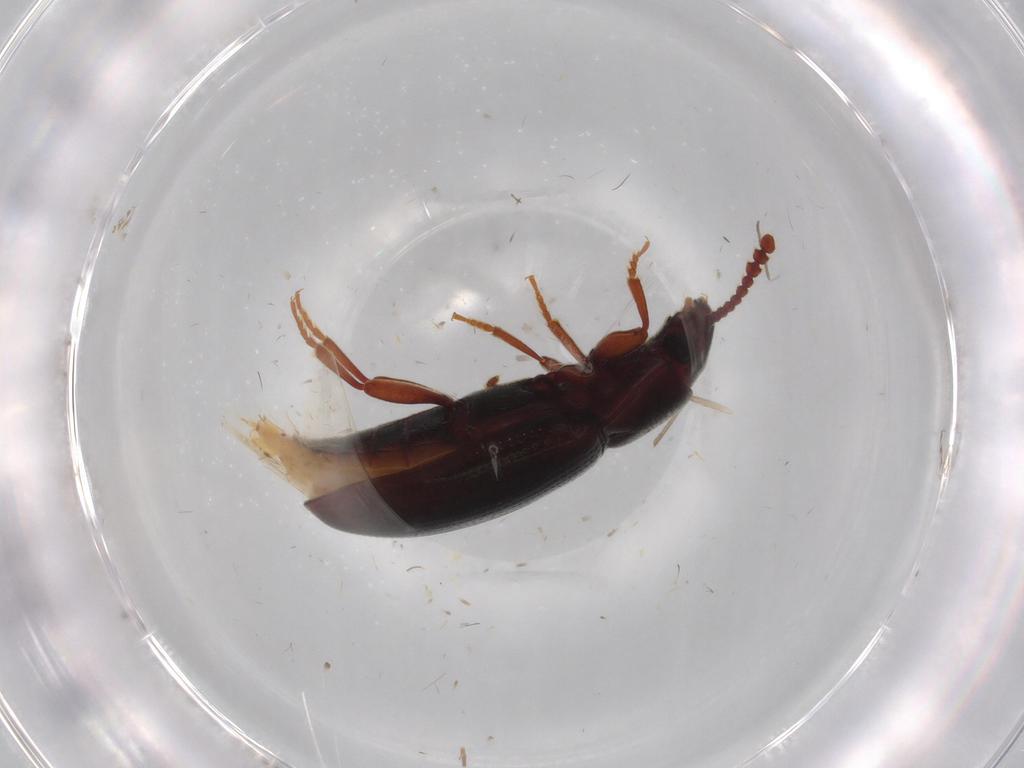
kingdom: Animalia
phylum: Arthropoda
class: Insecta
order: Coleoptera
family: Erotylidae
